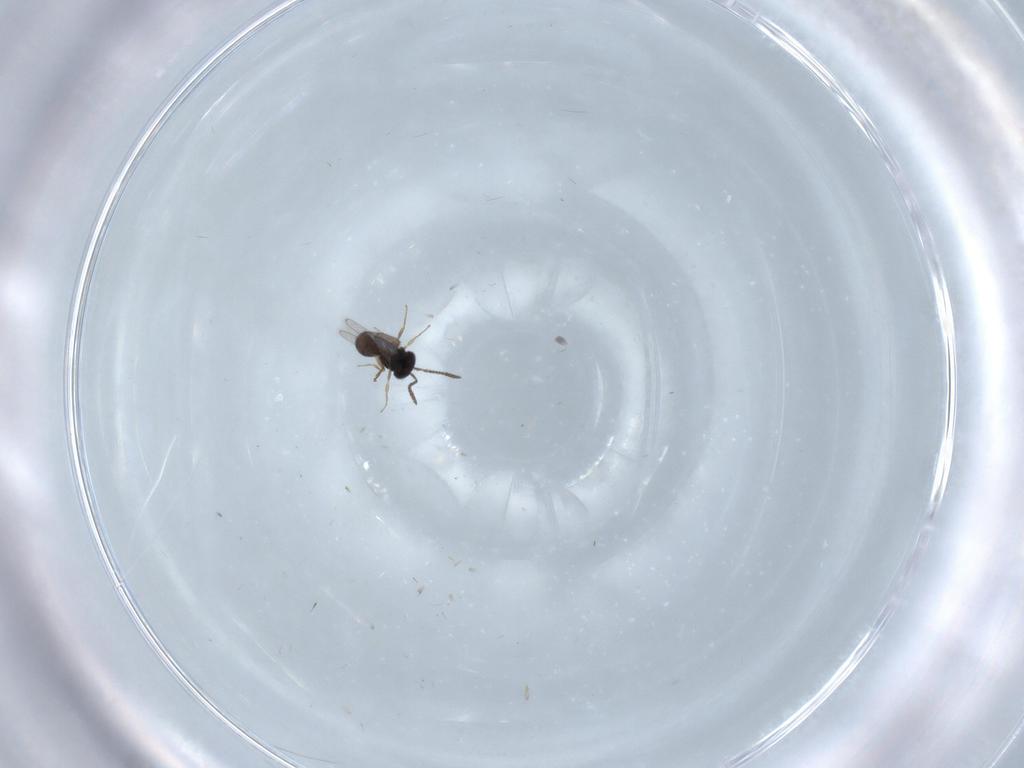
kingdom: Animalia
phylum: Arthropoda
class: Insecta
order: Hymenoptera
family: Scelionidae
